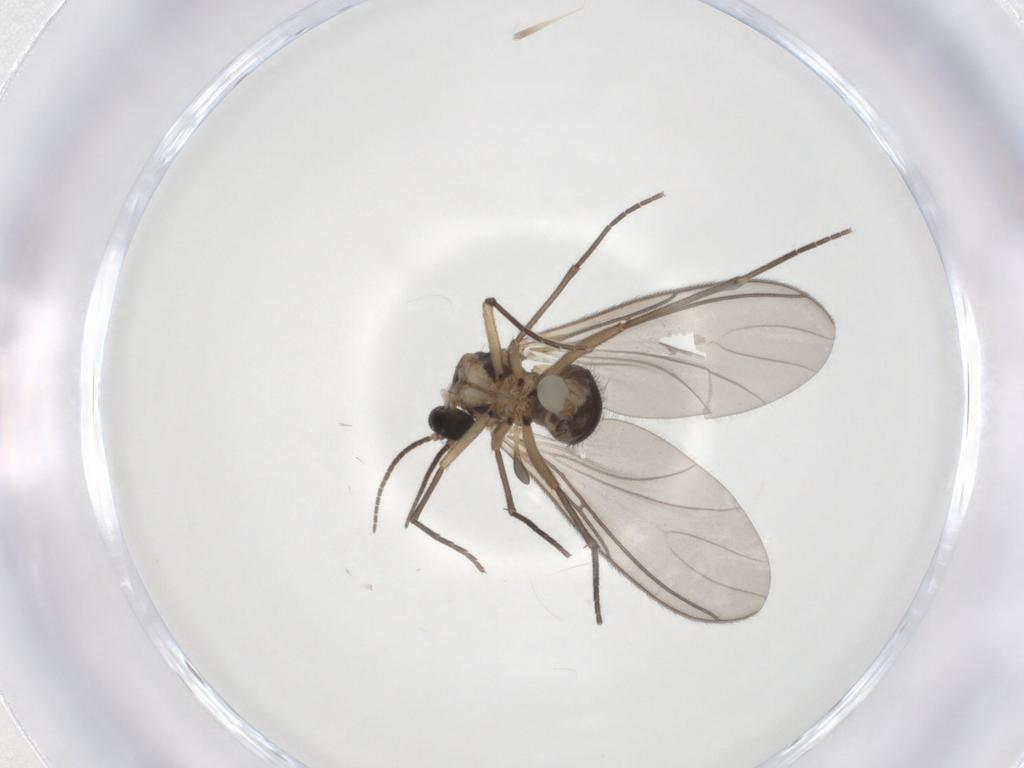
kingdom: Animalia
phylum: Arthropoda
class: Insecta
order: Diptera
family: Sciaridae
